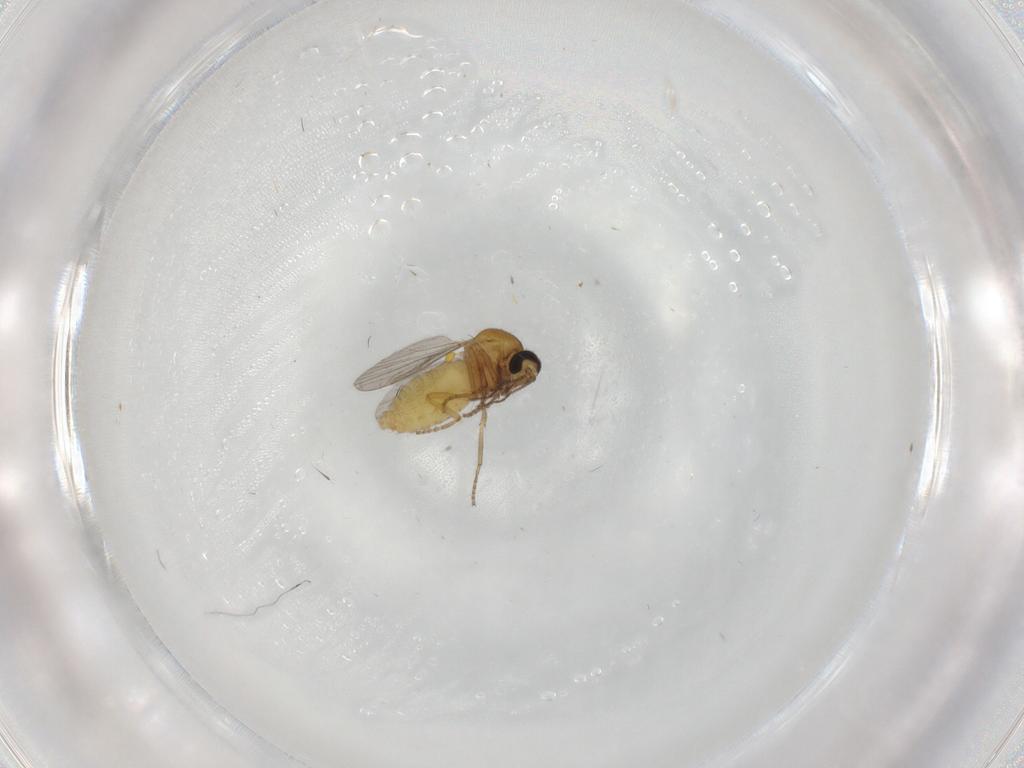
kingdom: Animalia
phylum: Arthropoda
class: Insecta
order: Diptera
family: Ceratopogonidae
